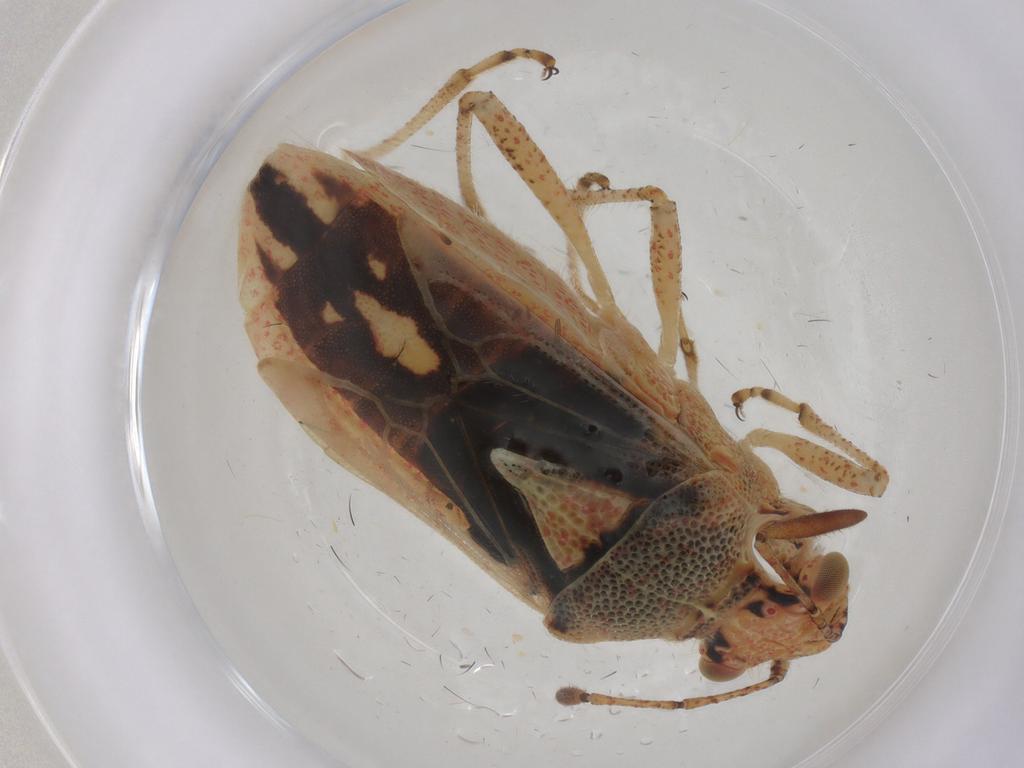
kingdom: Animalia
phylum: Arthropoda
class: Insecta
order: Hemiptera
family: Rhopalidae
